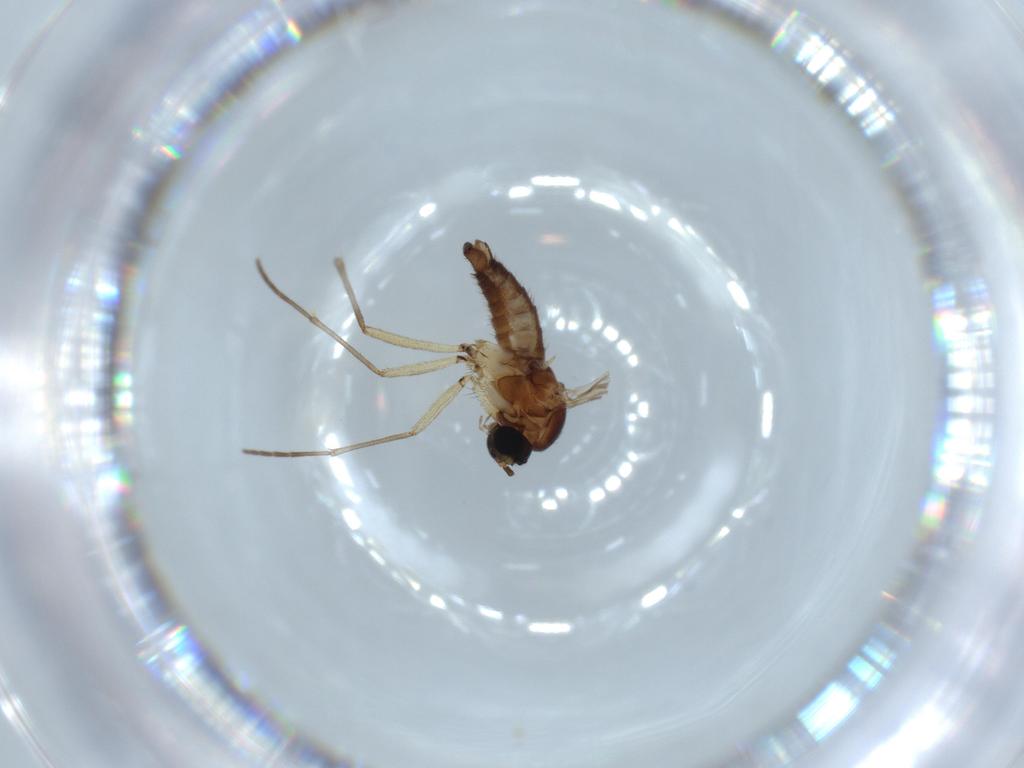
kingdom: Animalia
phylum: Arthropoda
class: Insecta
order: Diptera
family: Sciaridae
